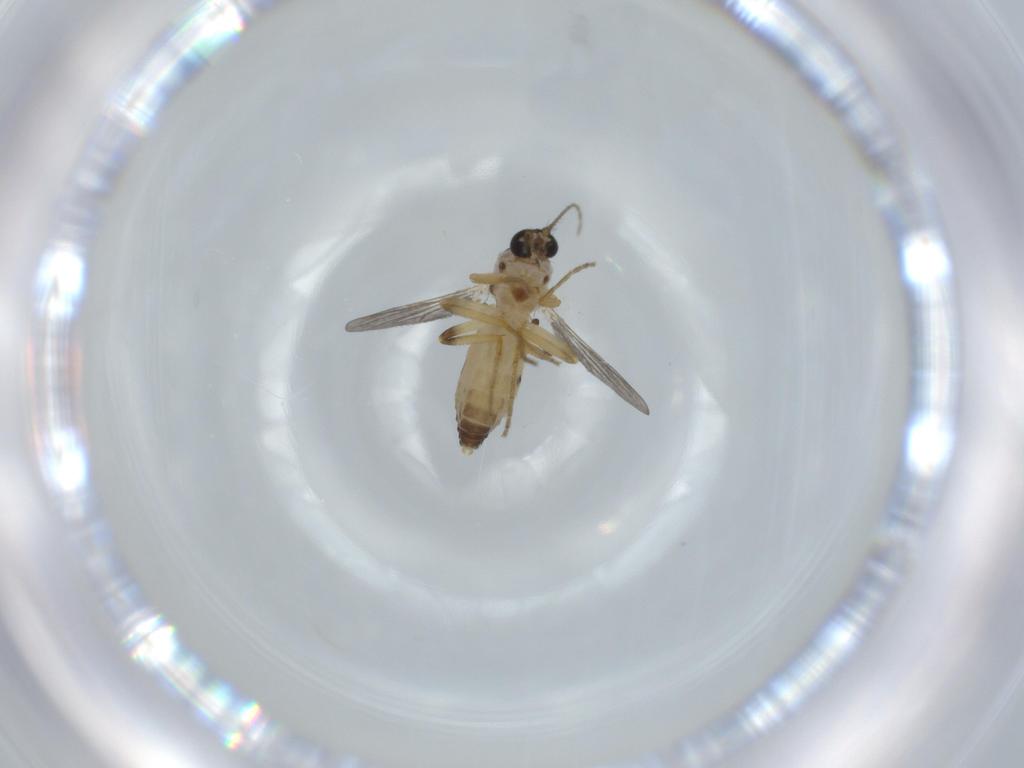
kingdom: Animalia
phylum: Arthropoda
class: Insecta
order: Diptera
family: Ceratopogonidae
